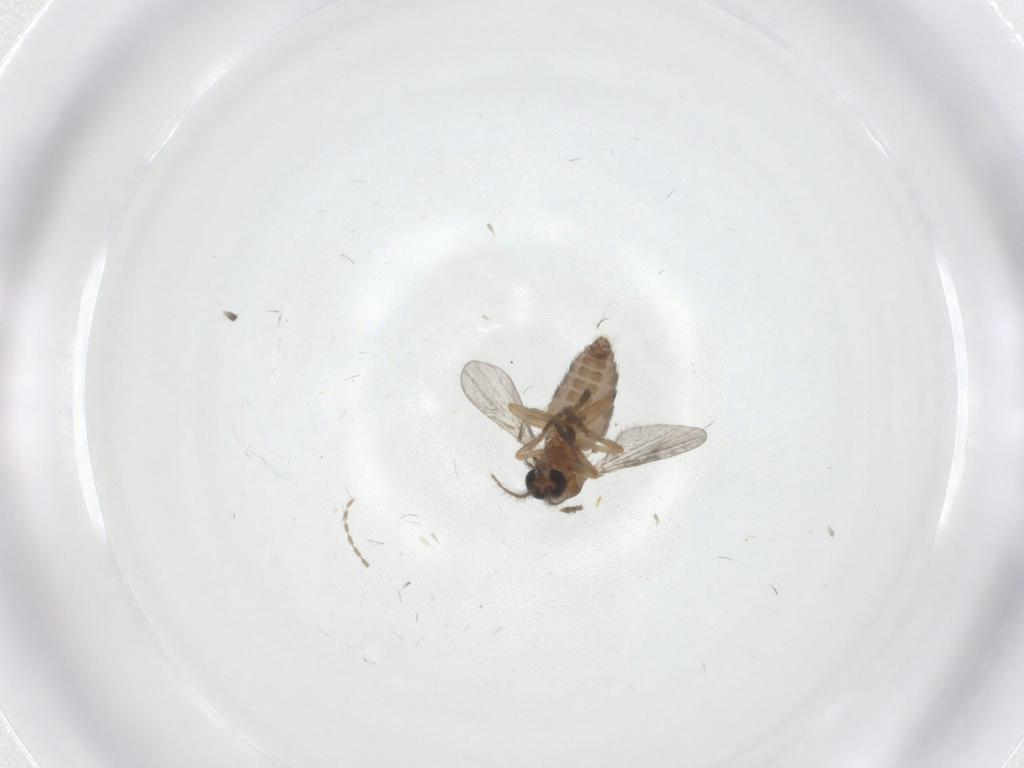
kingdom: Animalia
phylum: Arthropoda
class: Insecta
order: Diptera
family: Ceratopogonidae
